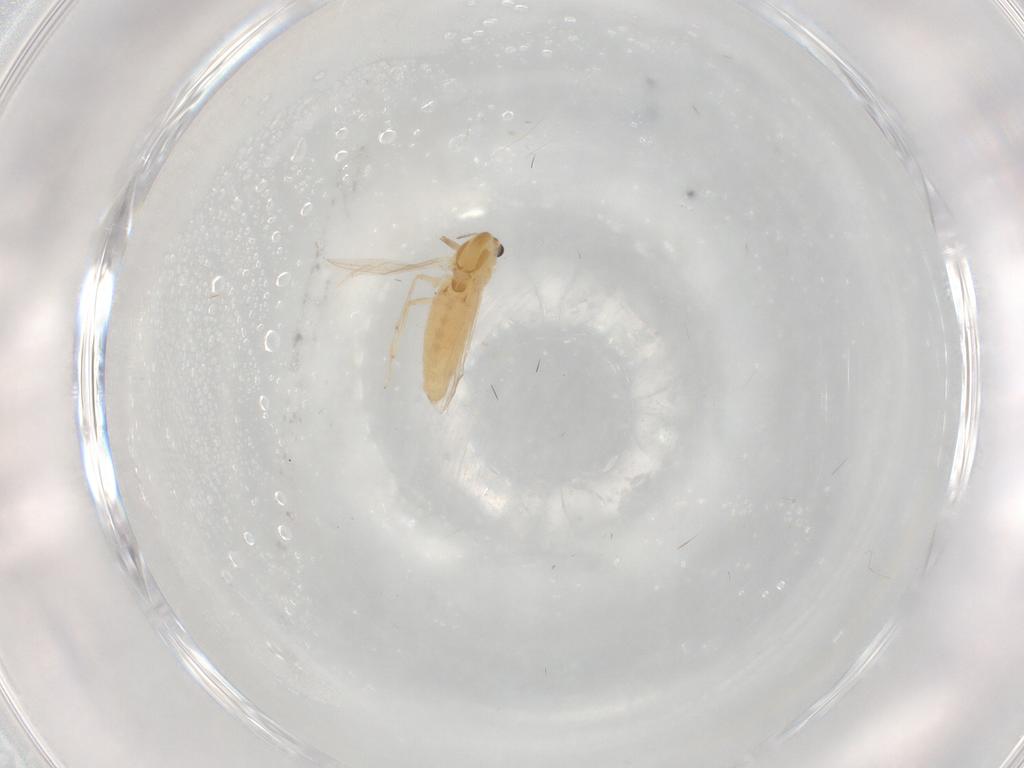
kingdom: Animalia
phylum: Arthropoda
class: Insecta
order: Diptera
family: Chironomidae
